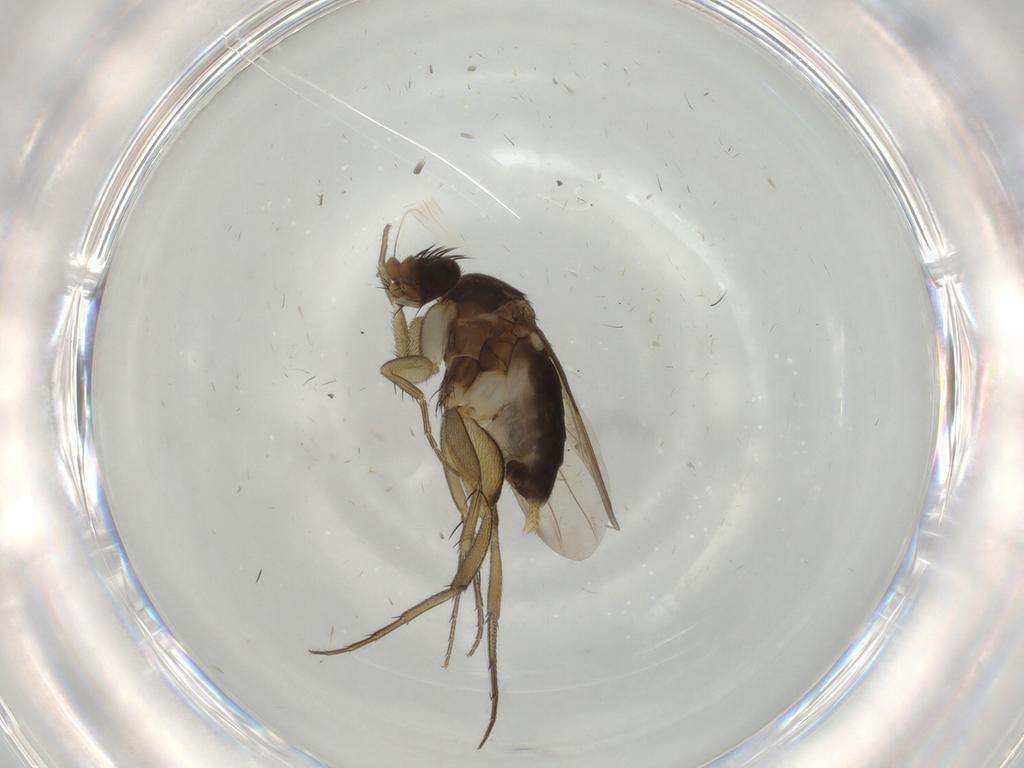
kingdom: Animalia
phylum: Arthropoda
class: Insecta
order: Diptera
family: Phoridae
